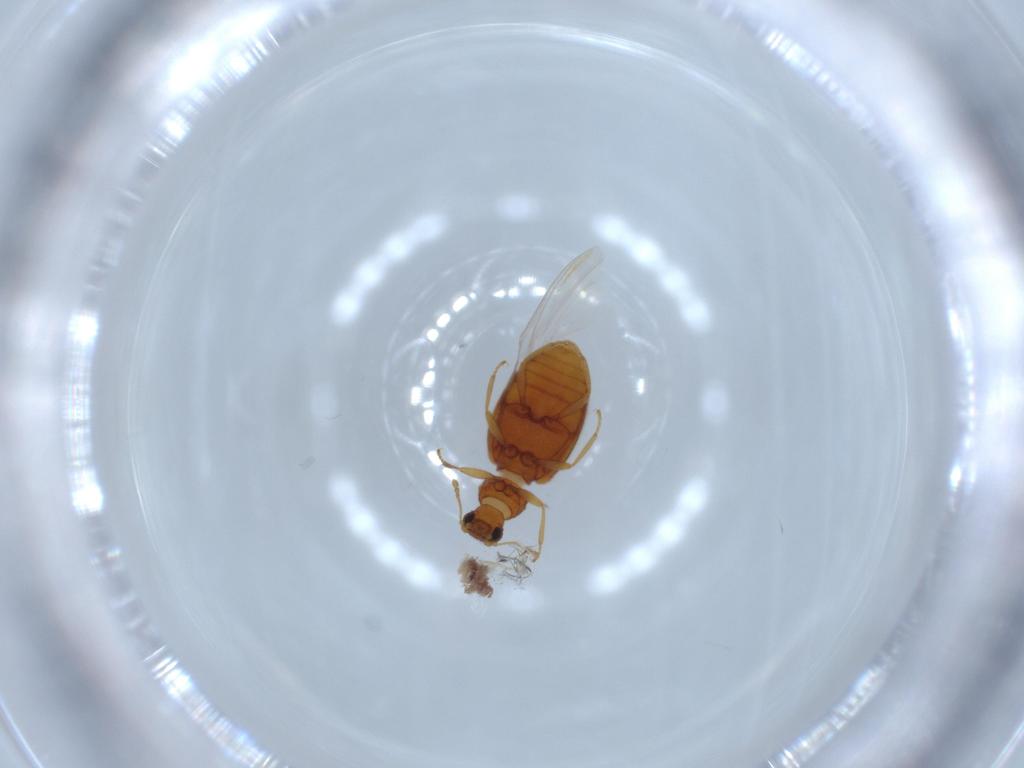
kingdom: Animalia
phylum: Arthropoda
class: Insecta
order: Coleoptera
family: Latridiidae
